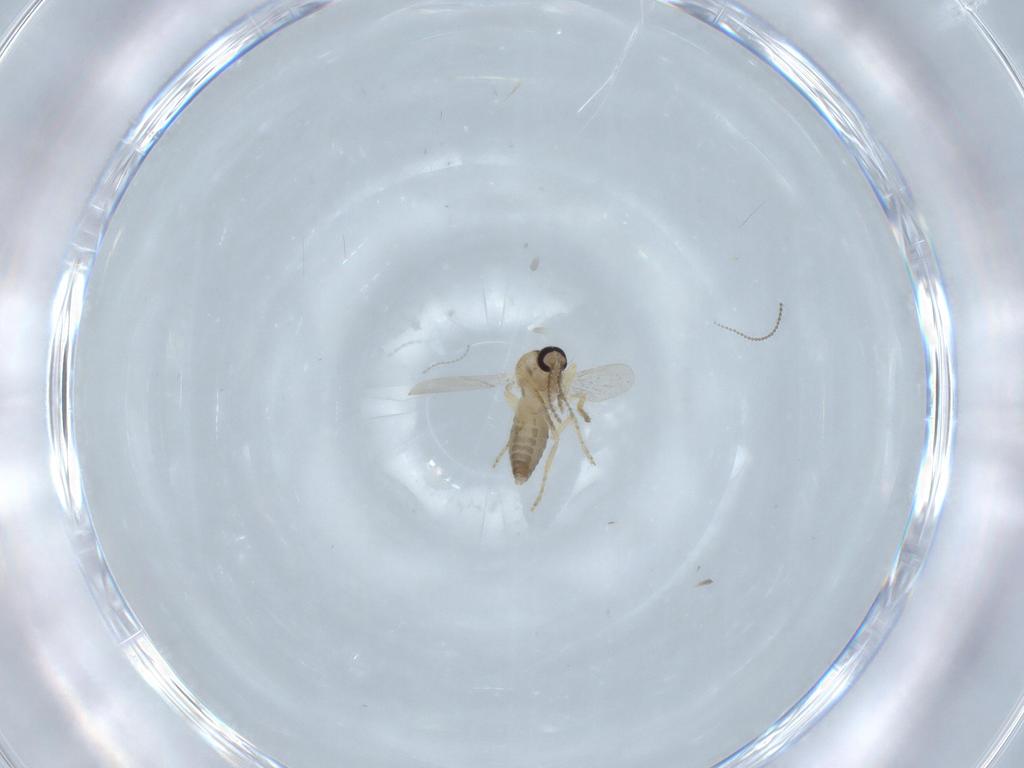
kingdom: Animalia
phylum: Arthropoda
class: Insecta
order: Diptera
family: Ceratopogonidae
